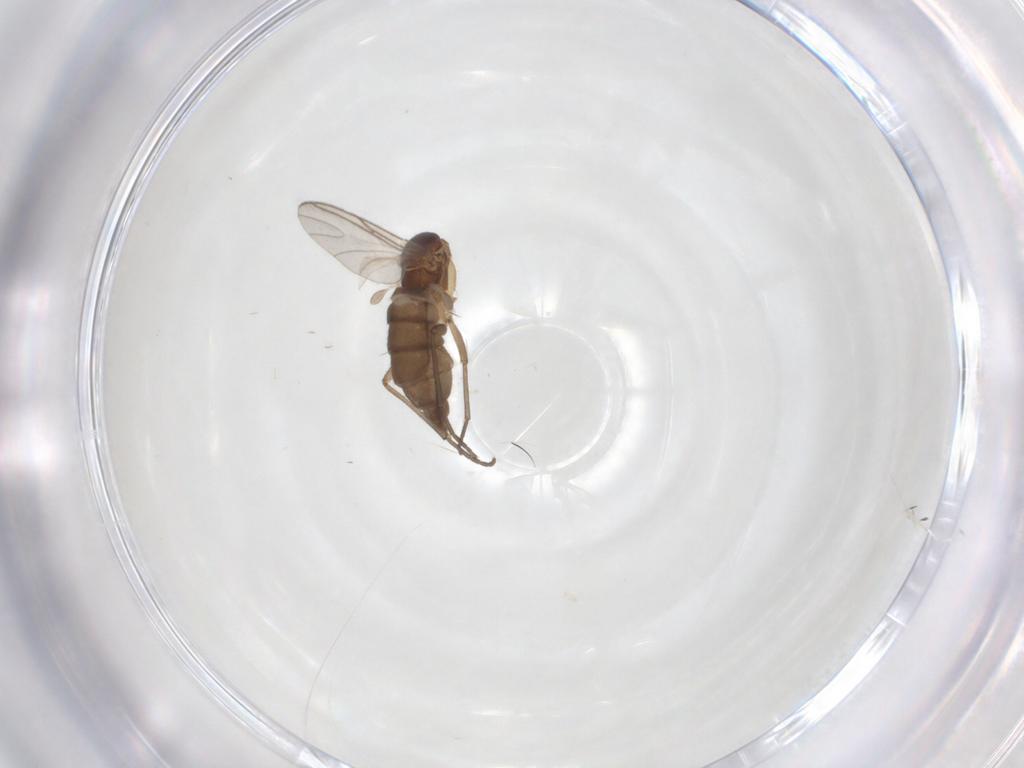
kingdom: Animalia
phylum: Arthropoda
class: Insecta
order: Diptera
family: Sciaridae
